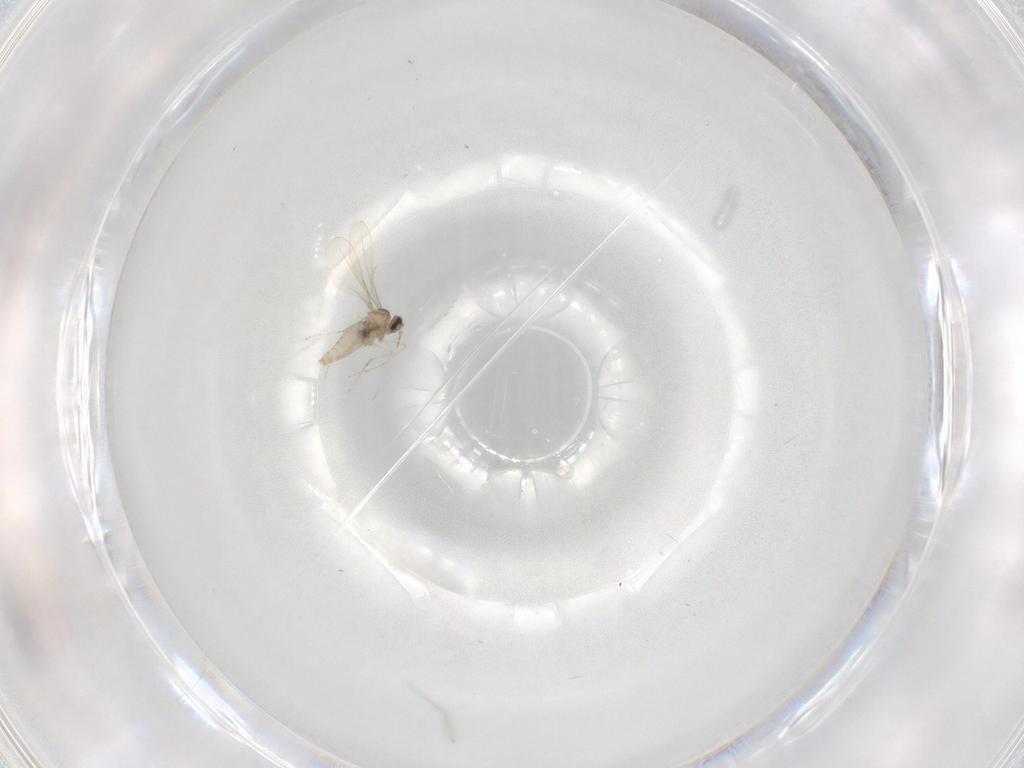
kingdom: Animalia
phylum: Arthropoda
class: Insecta
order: Diptera
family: Cecidomyiidae
